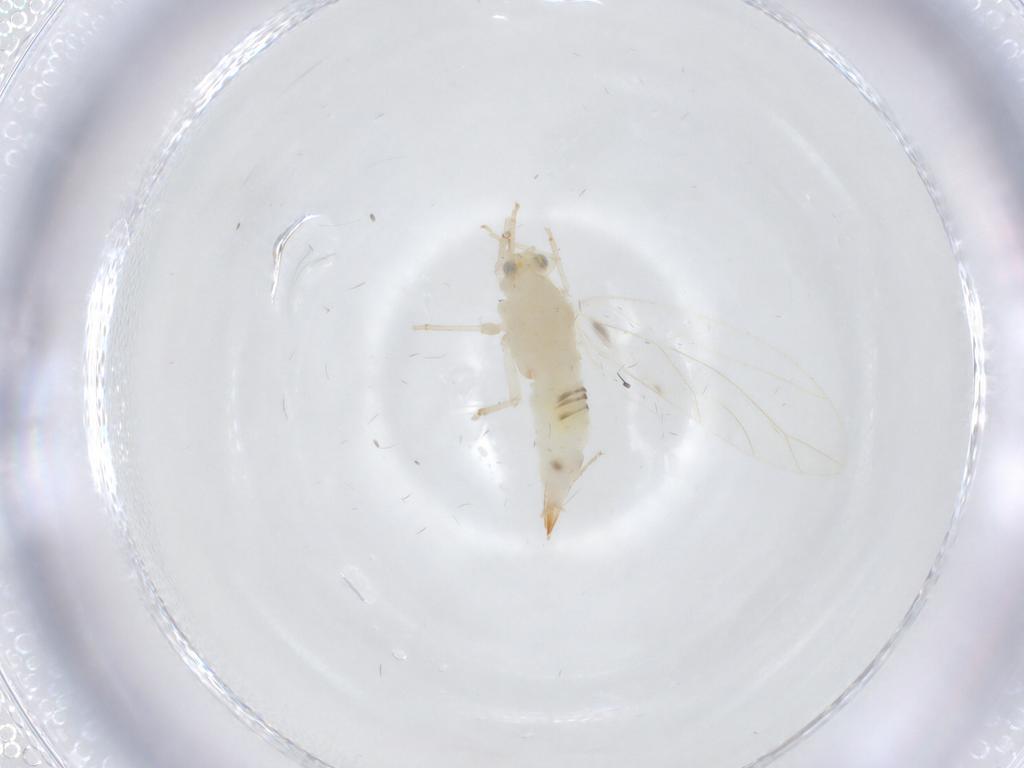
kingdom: Animalia
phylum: Arthropoda
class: Insecta
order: Diptera
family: Chironomidae
